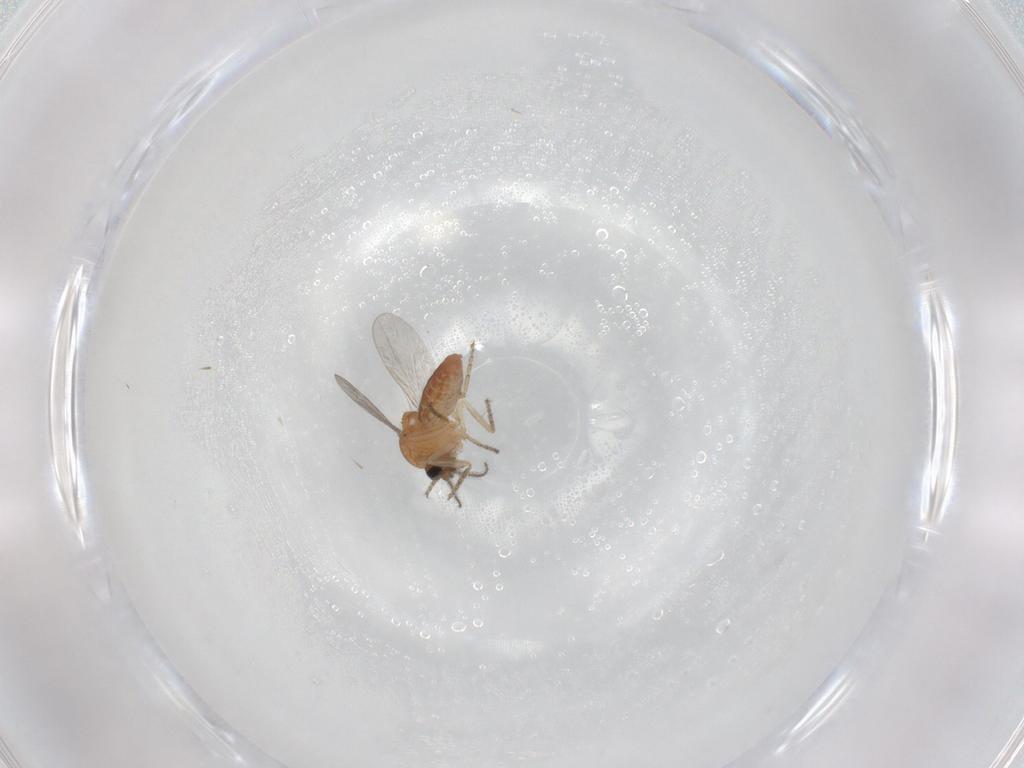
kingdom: Animalia
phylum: Arthropoda
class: Insecta
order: Diptera
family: Ceratopogonidae
